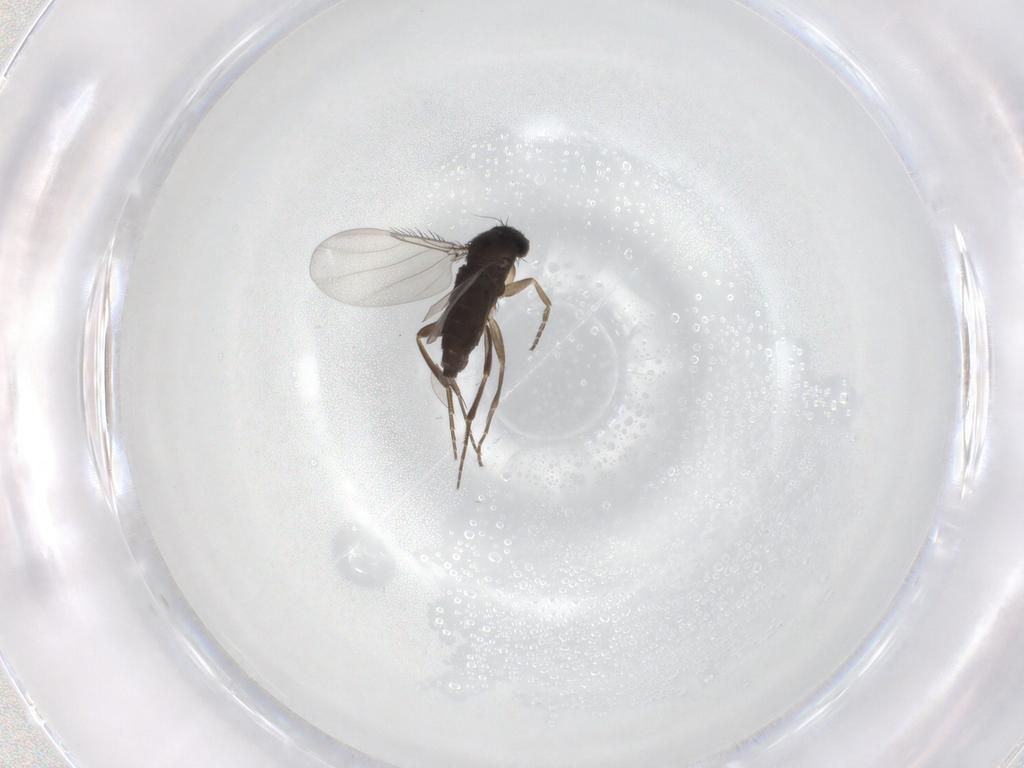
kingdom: Animalia
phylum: Arthropoda
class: Insecta
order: Diptera
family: Phoridae
